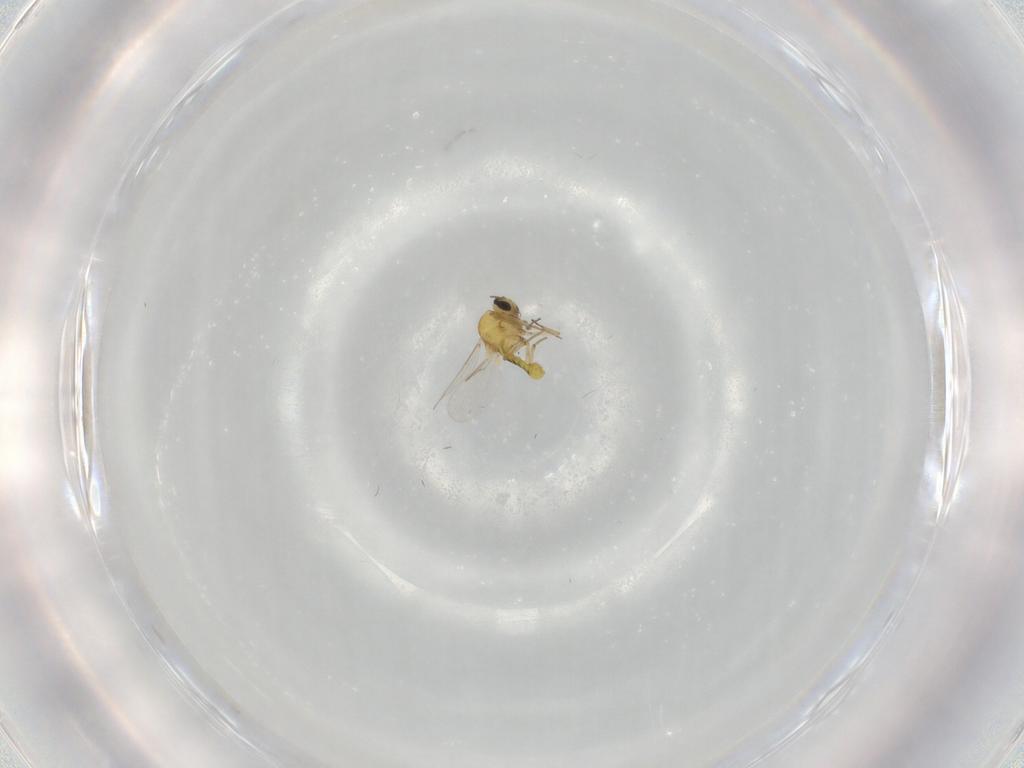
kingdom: Animalia
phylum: Arthropoda
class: Insecta
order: Diptera
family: Ceratopogonidae
